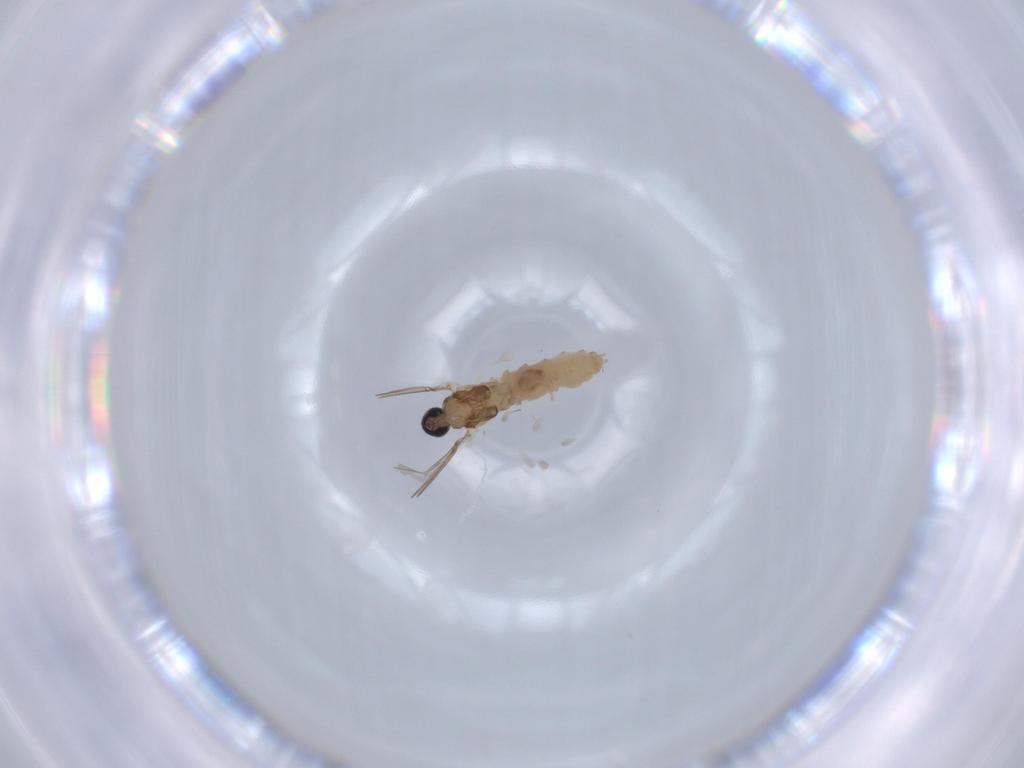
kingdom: Animalia
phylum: Arthropoda
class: Insecta
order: Diptera
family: Cecidomyiidae
